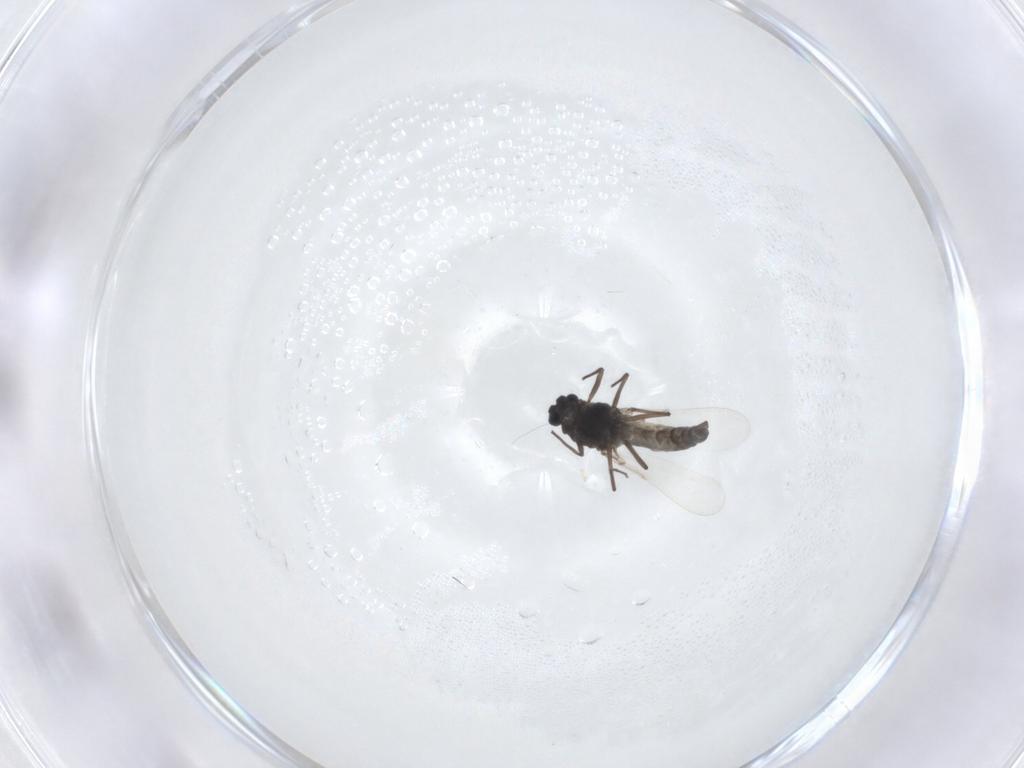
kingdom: Animalia
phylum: Arthropoda
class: Insecta
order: Diptera
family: Chironomidae
